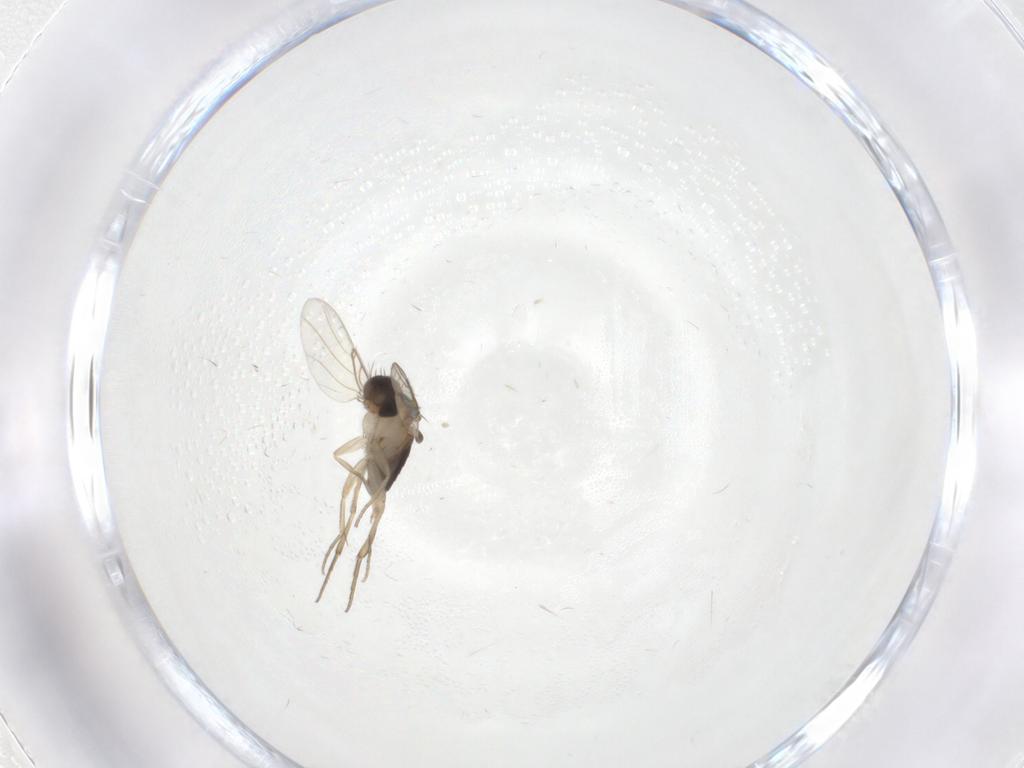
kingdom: Animalia
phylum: Arthropoda
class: Insecta
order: Diptera
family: Phoridae
